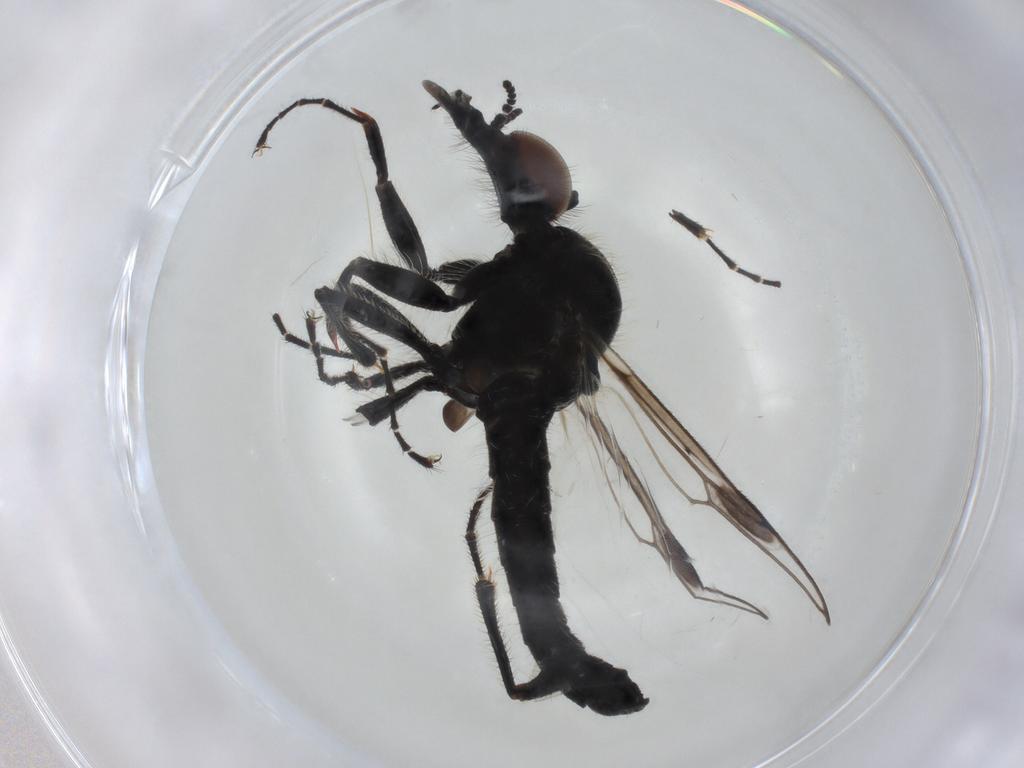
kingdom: Animalia
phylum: Arthropoda
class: Insecta
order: Diptera
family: Bibionidae
